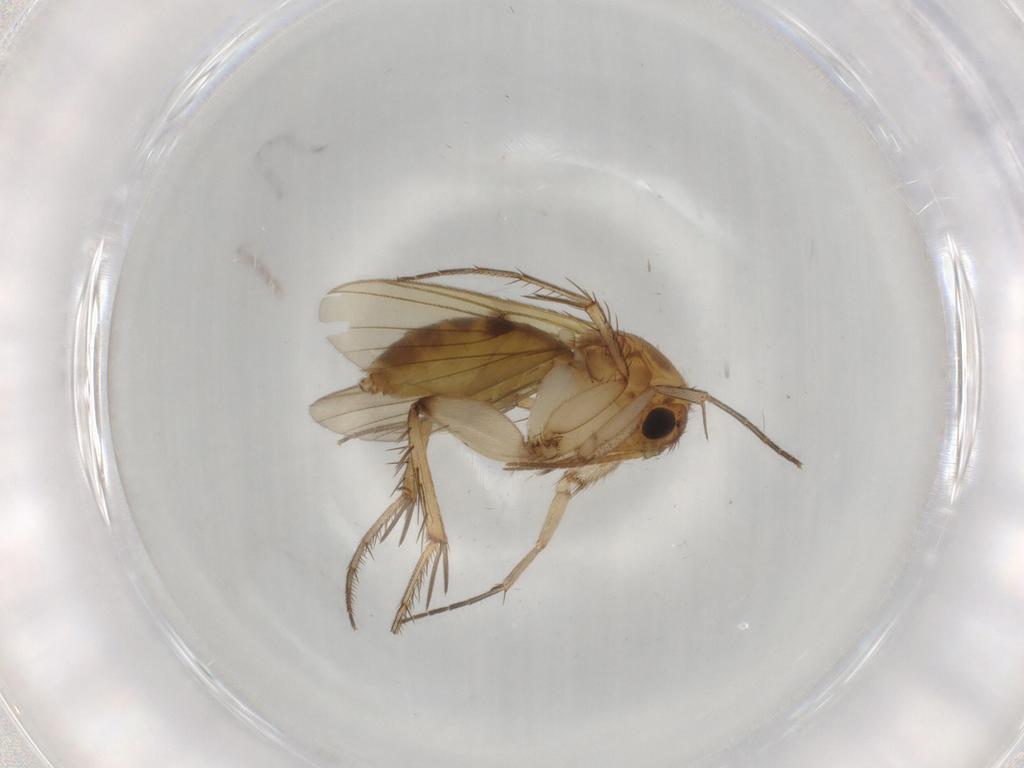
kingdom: Animalia
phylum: Arthropoda
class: Insecta
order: Diptera
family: Cecidomyiidae
